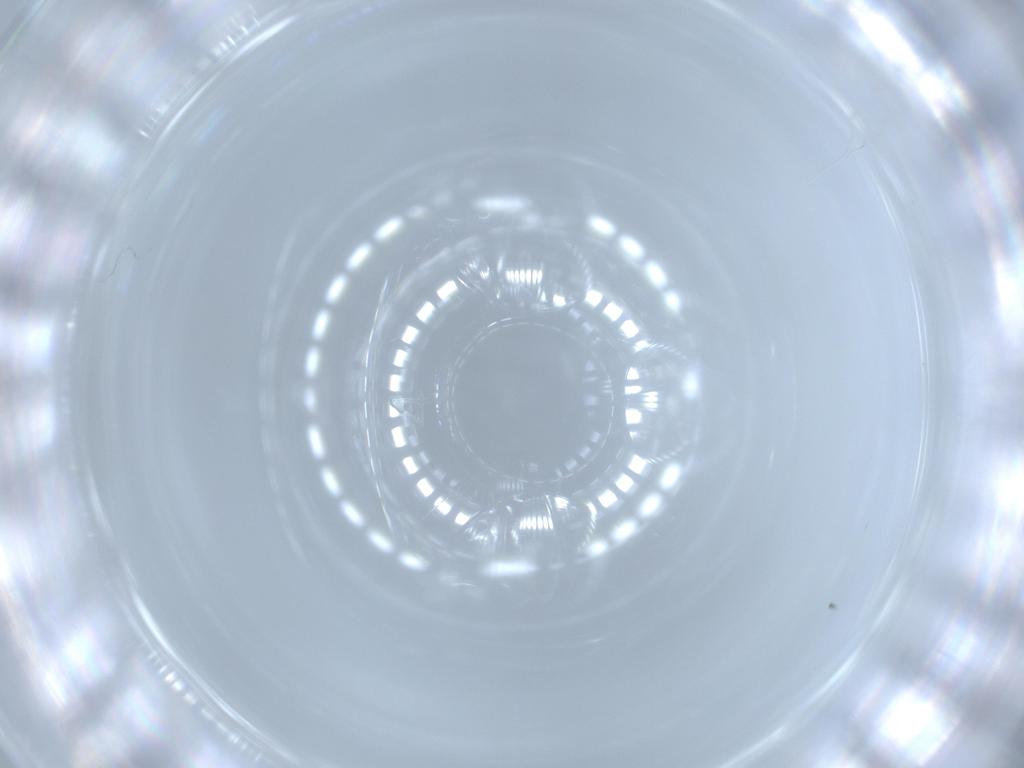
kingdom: Animalia
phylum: Arthropoda
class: Insecta
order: Diptera
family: Chironomidae
